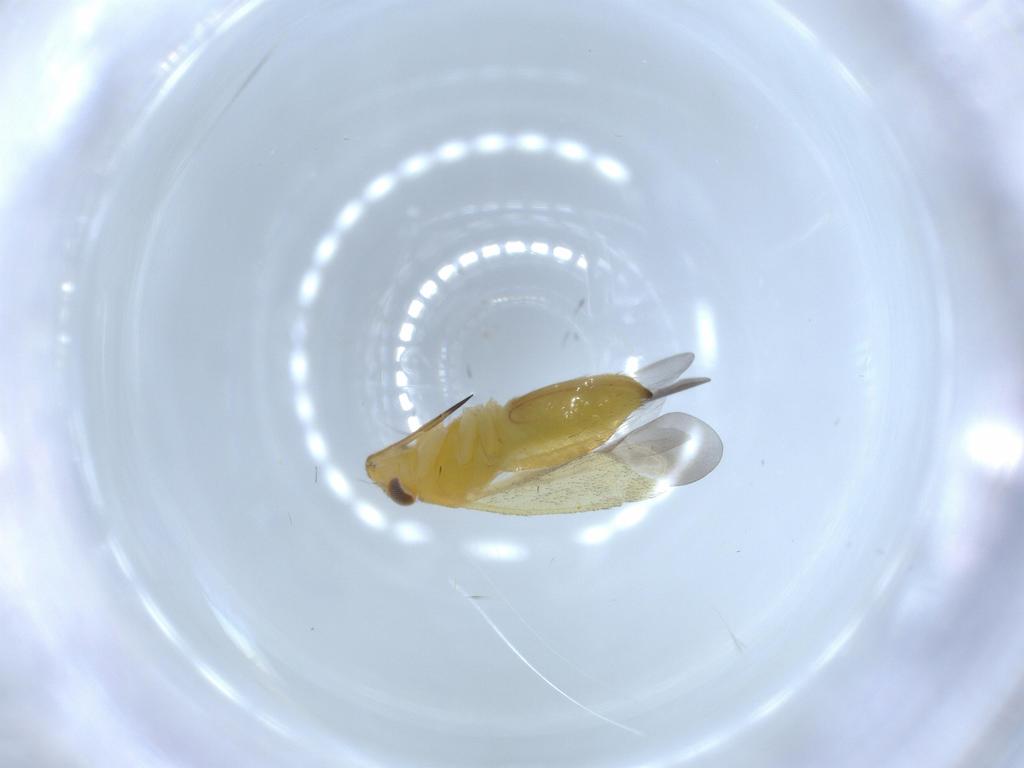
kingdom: Animalia
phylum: Arthropoda
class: Insecta
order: Hemiptera
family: Miridae
